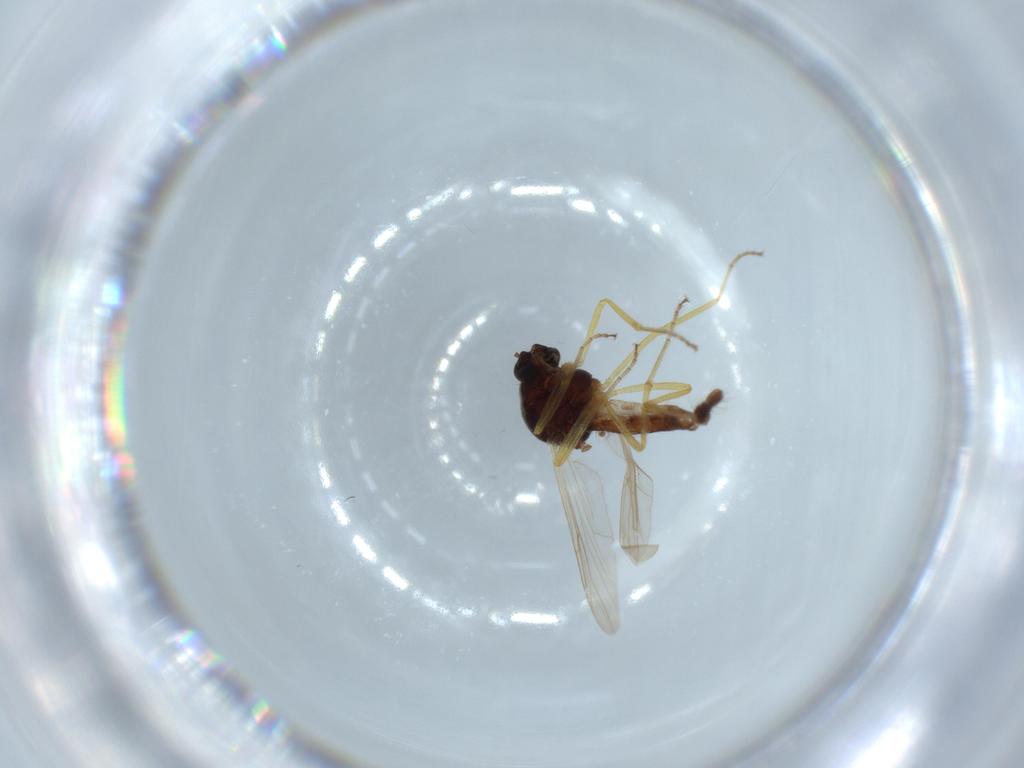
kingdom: Animalia
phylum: Arthropoda
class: Insecta
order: Diptera
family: Ceratopogonidae
